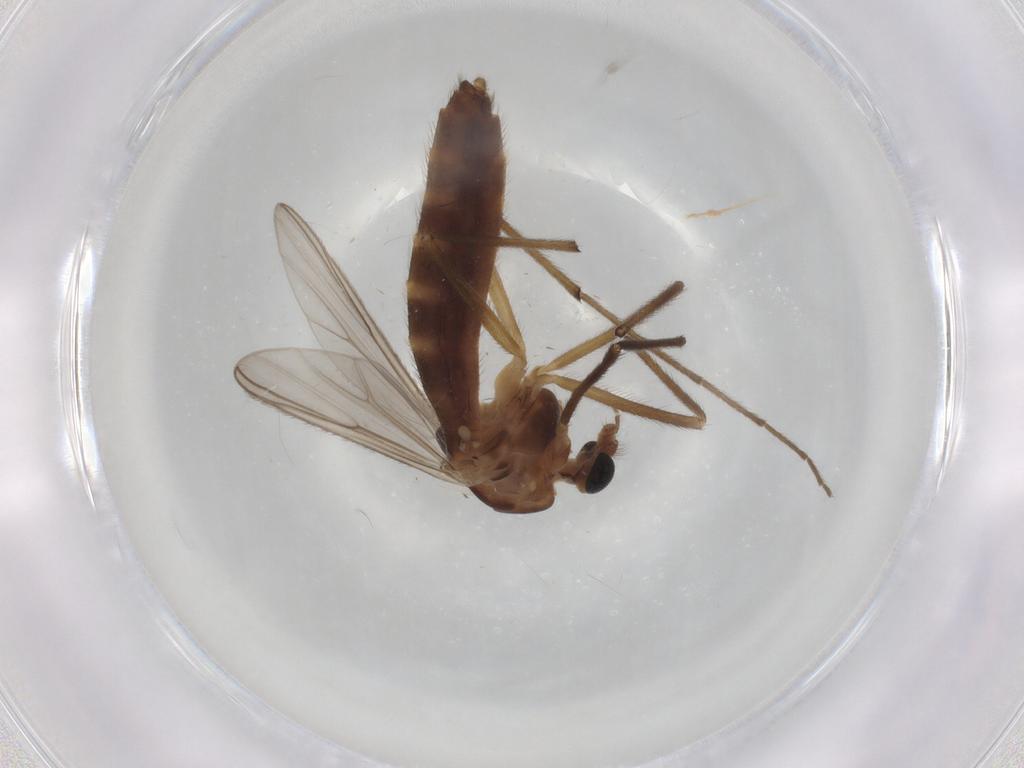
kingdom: Animalia
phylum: Arthropoda
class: Insecta
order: Diptera
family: Chironomidae
